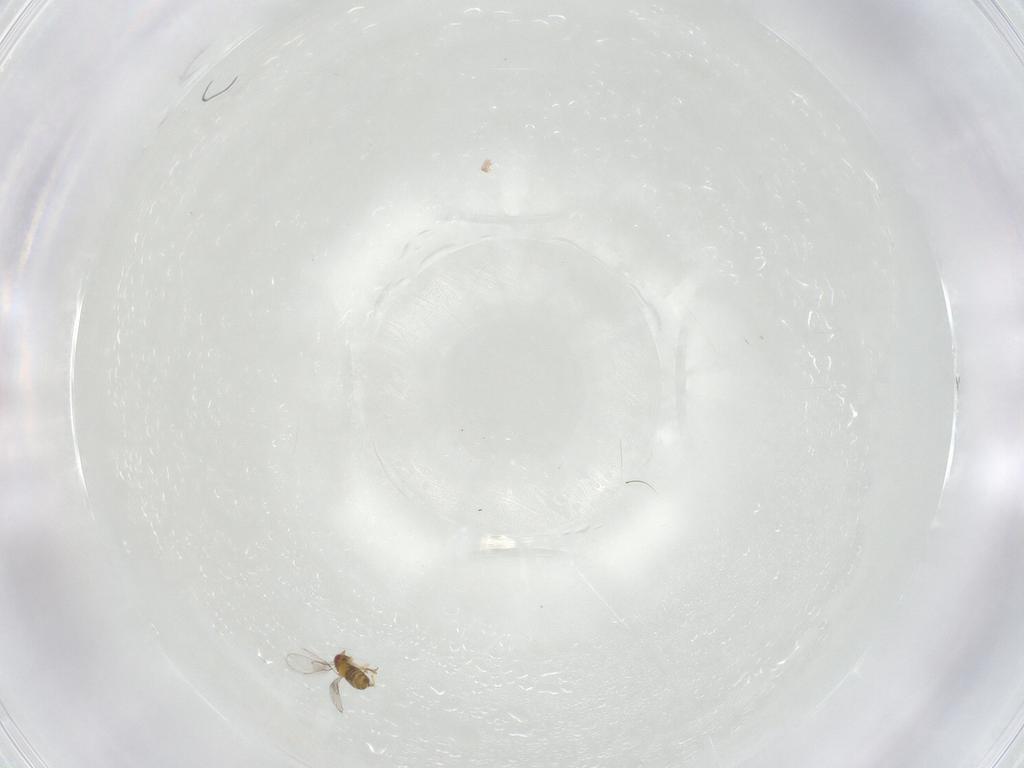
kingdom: Animalia
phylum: Arthropoda
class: Insecta
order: Hymenoptera
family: Trichogrammatidae
